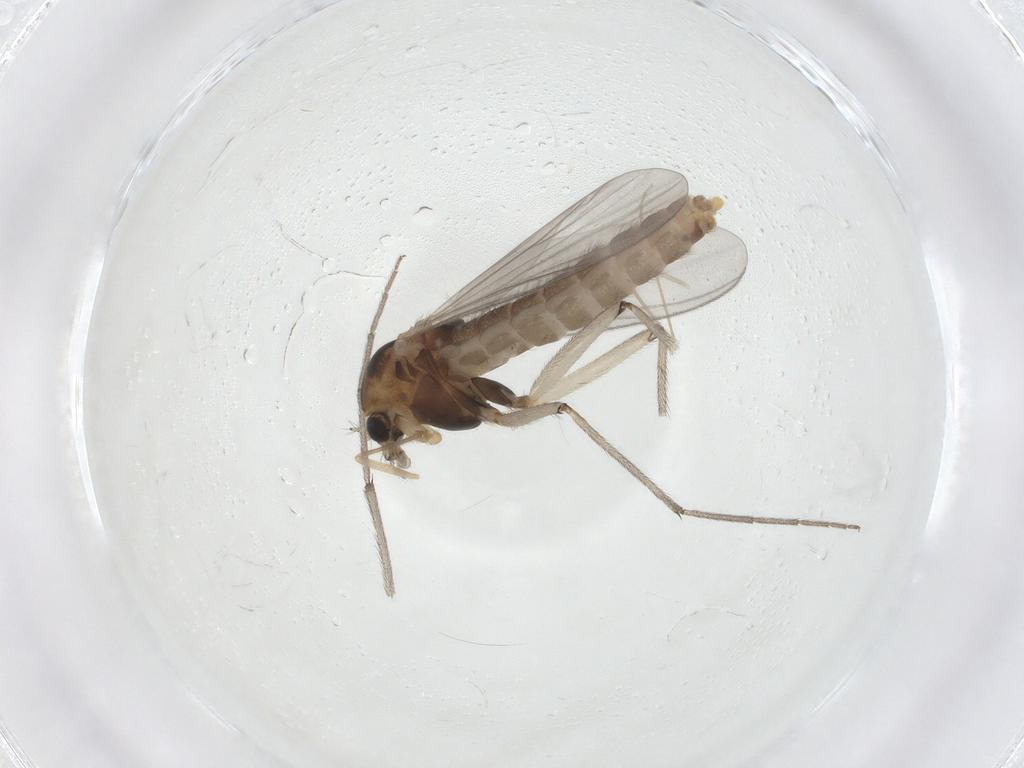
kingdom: Animalia
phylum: Arthropoda
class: Insecta
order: Diptera
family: Chironomidae
